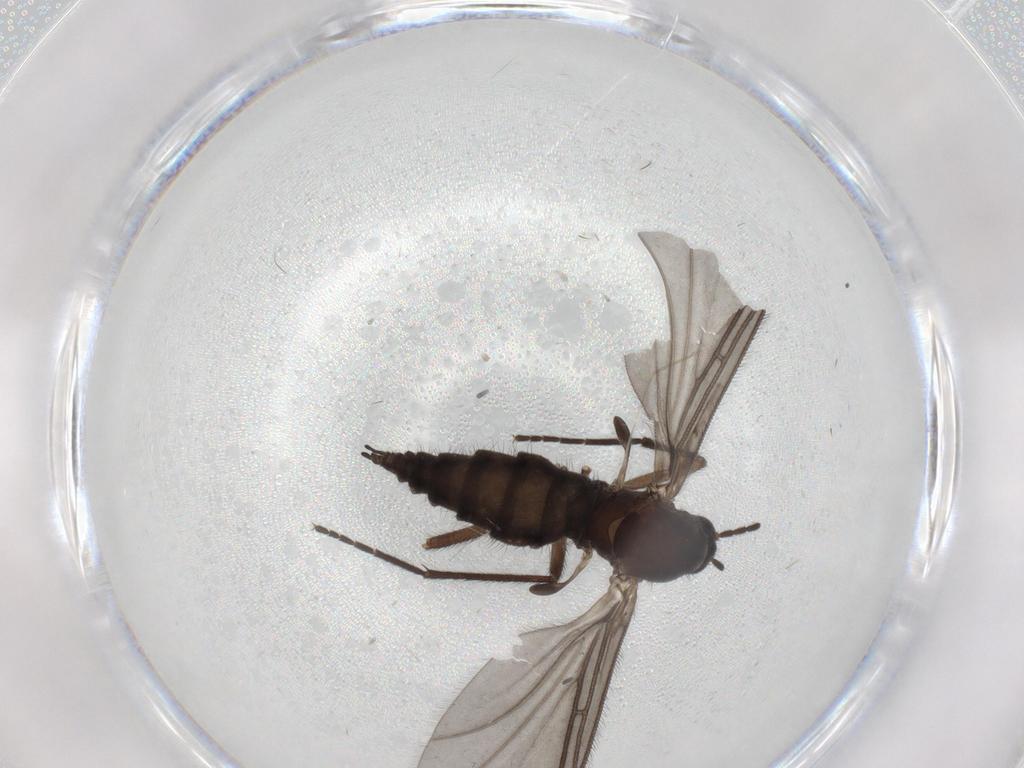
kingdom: Animalia
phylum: Arthropoda
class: Insecta
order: Diptera
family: Sciaridae
